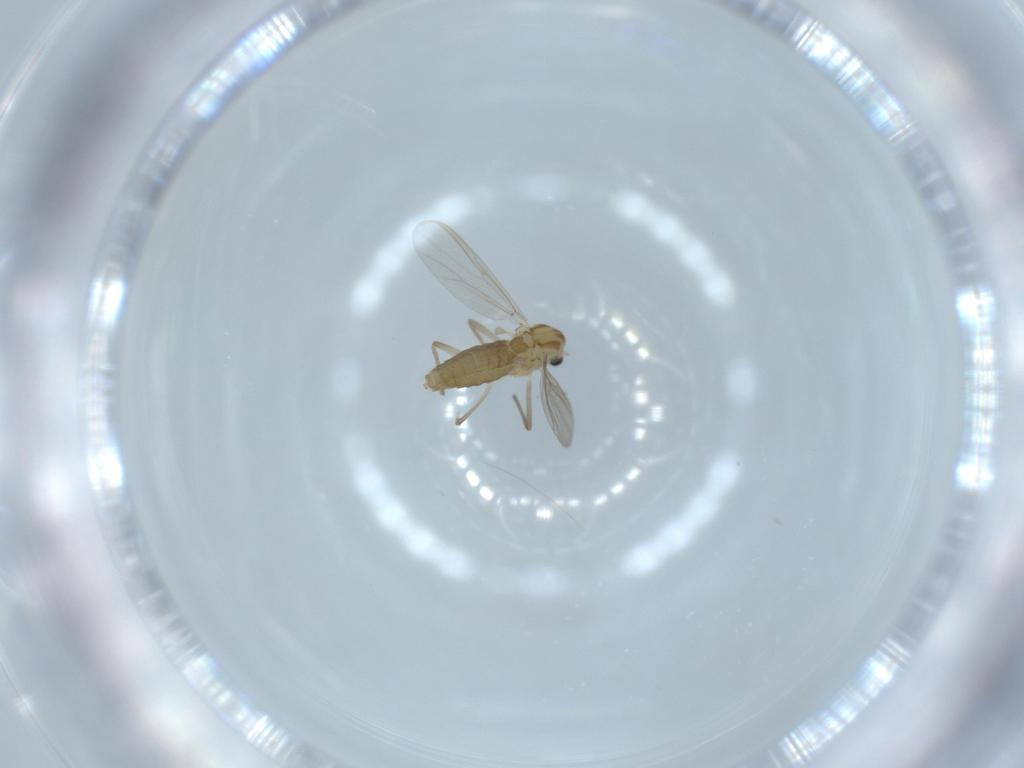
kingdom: Animalia
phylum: Arthropoda
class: Insecta
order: Diptera
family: Chironomidae
